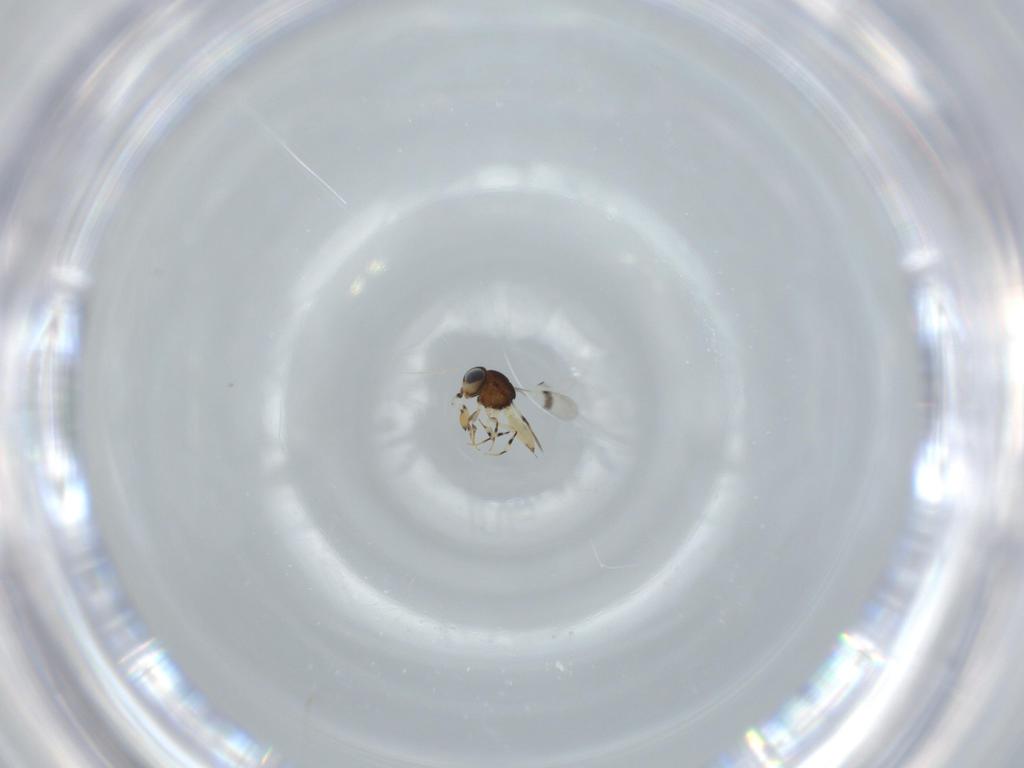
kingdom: Animalia
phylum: Arthropoda
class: Insecta
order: Hymenoptera
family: Scelionidae
